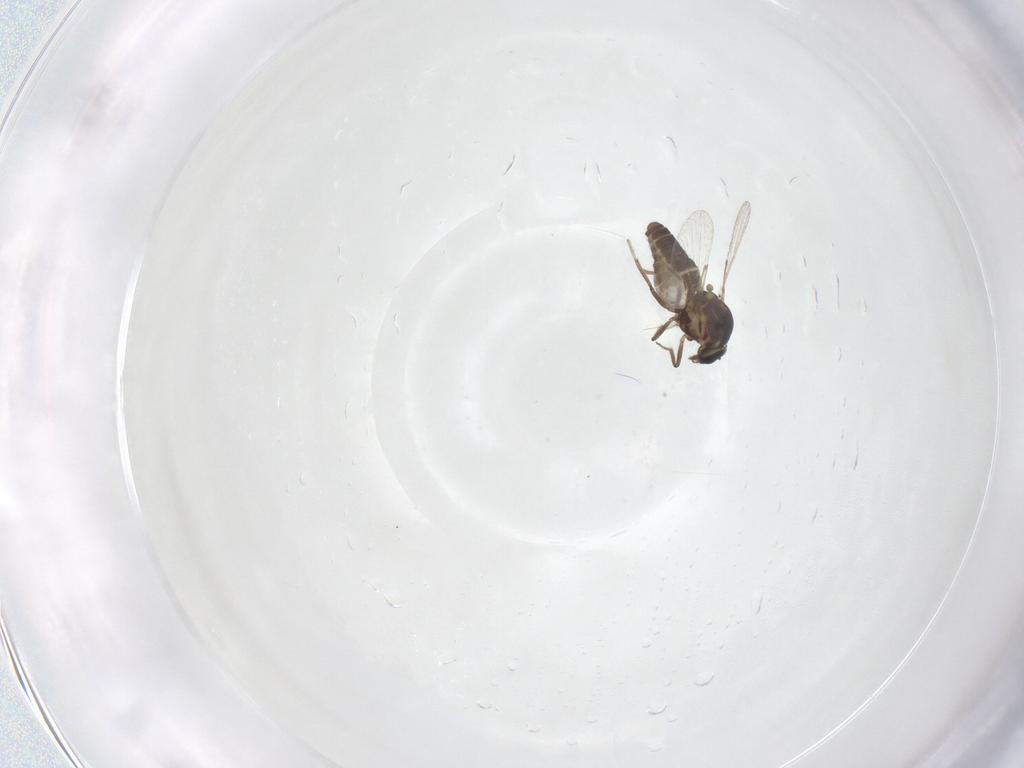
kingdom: Animalia
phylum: Arthropoda
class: Insecta
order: Diptera
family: Ceratopogonidae
